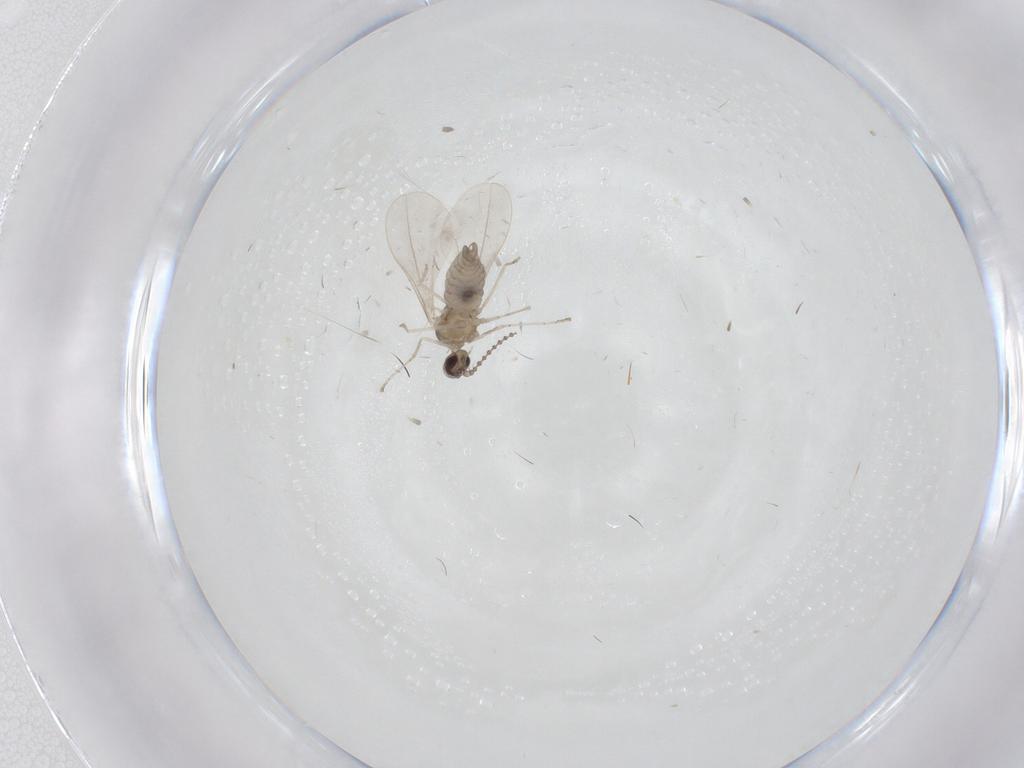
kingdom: Animalia
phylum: Arthropoda
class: Insecta
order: Diptera
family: Cecidomyiidae
